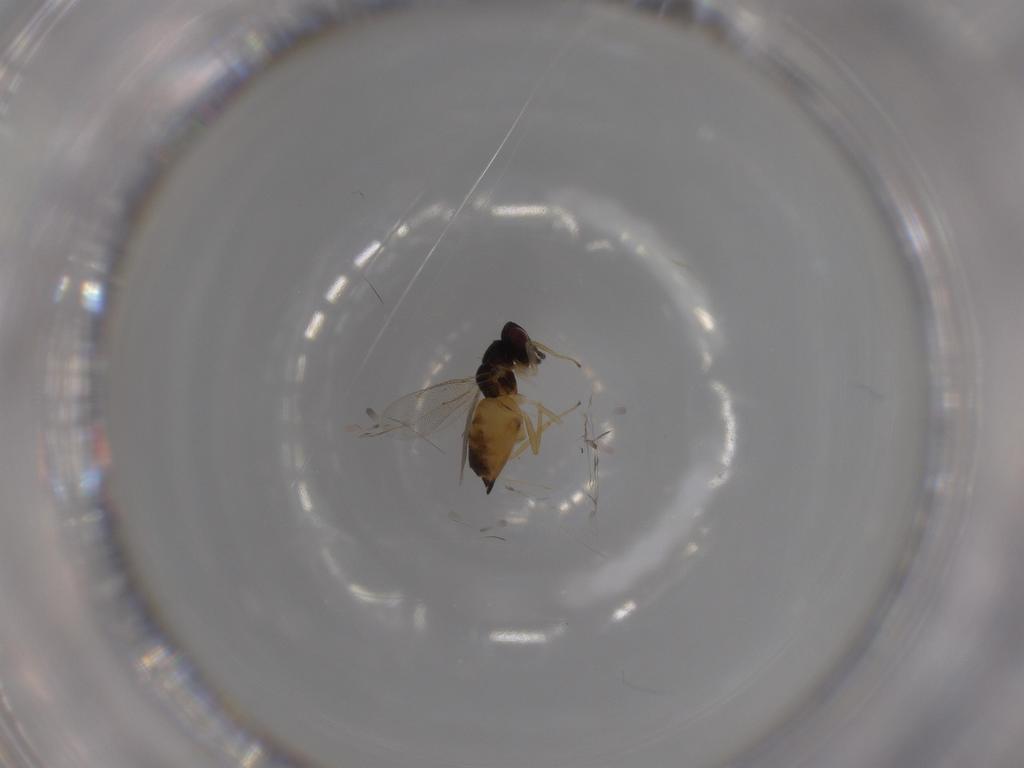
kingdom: Animalia
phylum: Arthropoda
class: Insecta
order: Hymenoptera
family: Eulophidae
